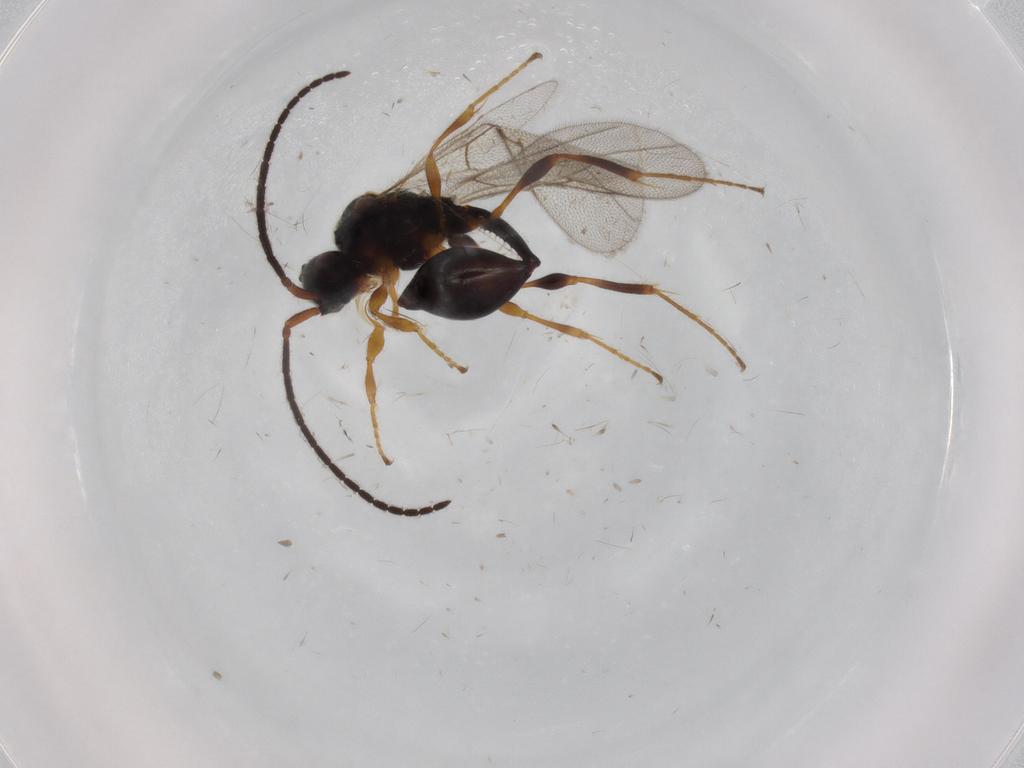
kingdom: Animalia
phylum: Arthropoda
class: Insecta
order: Hymenoptera
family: Diapriidae
